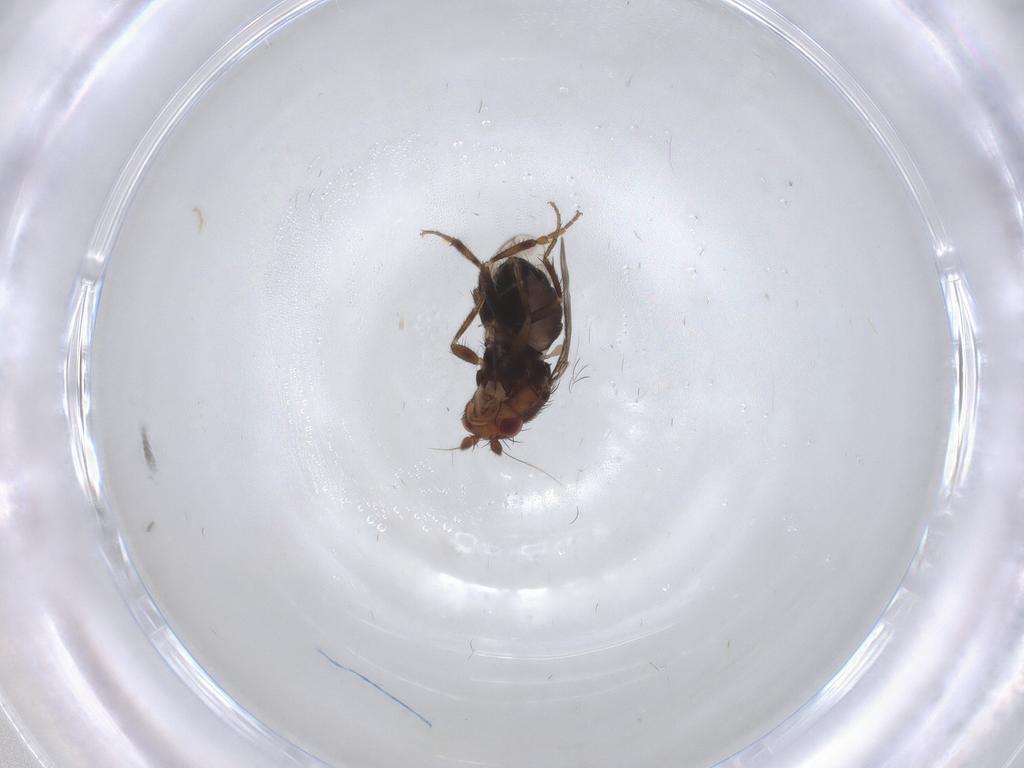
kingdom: Animalia
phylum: Arthropoda
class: Insecta
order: Diptera
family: Sphaeroceridae
